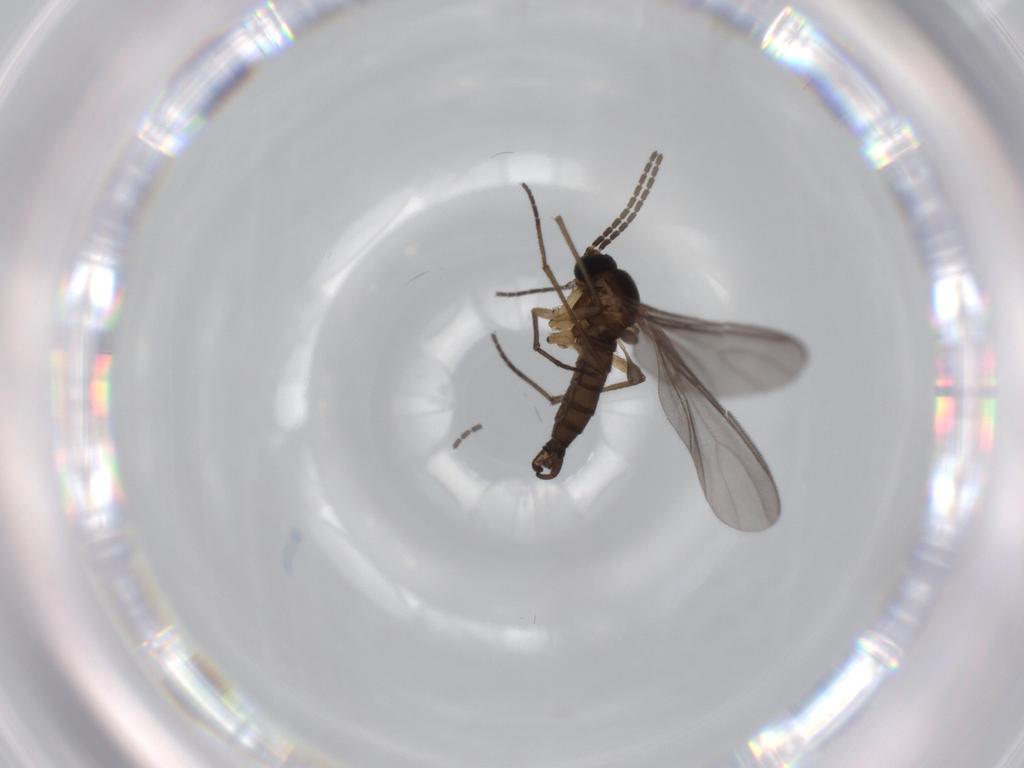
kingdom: Animalia
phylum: Arthropoda
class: Insecta
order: Diptera
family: Sciaridae
